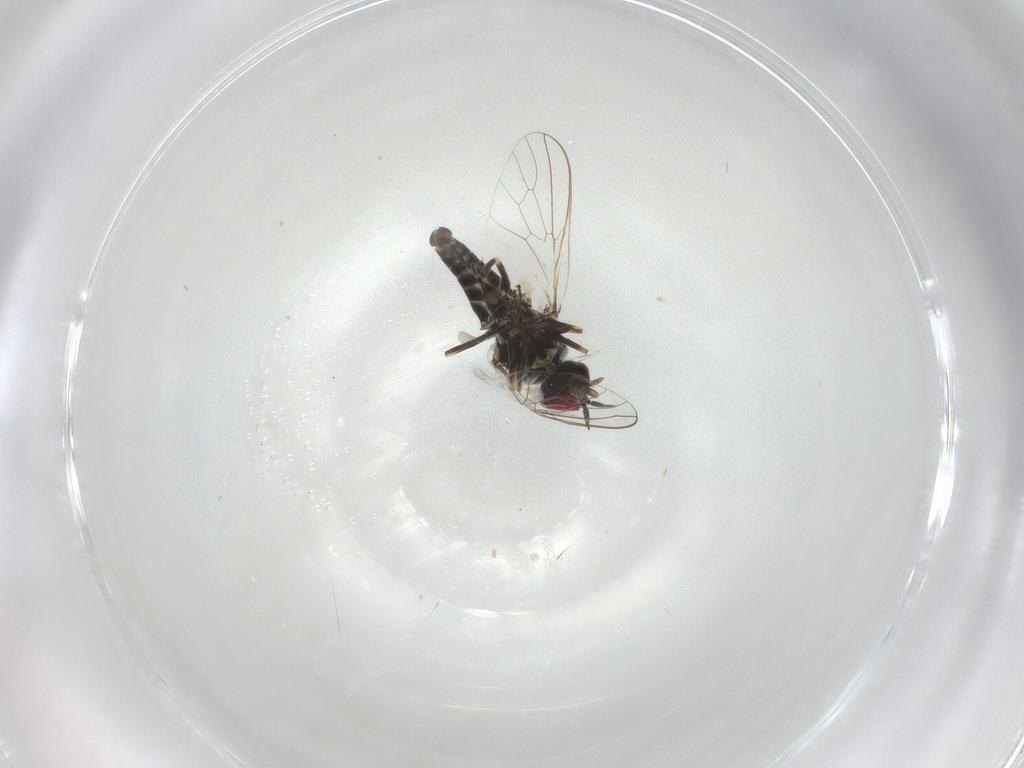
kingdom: Animalia
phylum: Arthropoda
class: Insecta
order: Diptera
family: Bombyliidae
